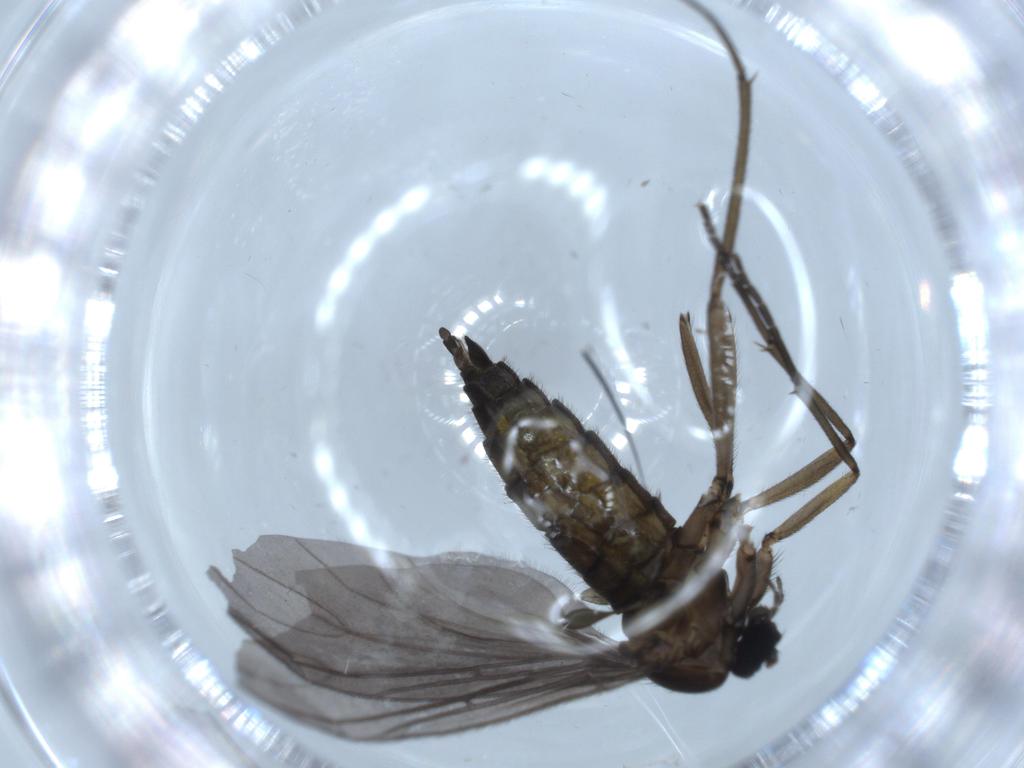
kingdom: Animalia
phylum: Arthropoda
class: Insecta
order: Diptera
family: Sciaridae
